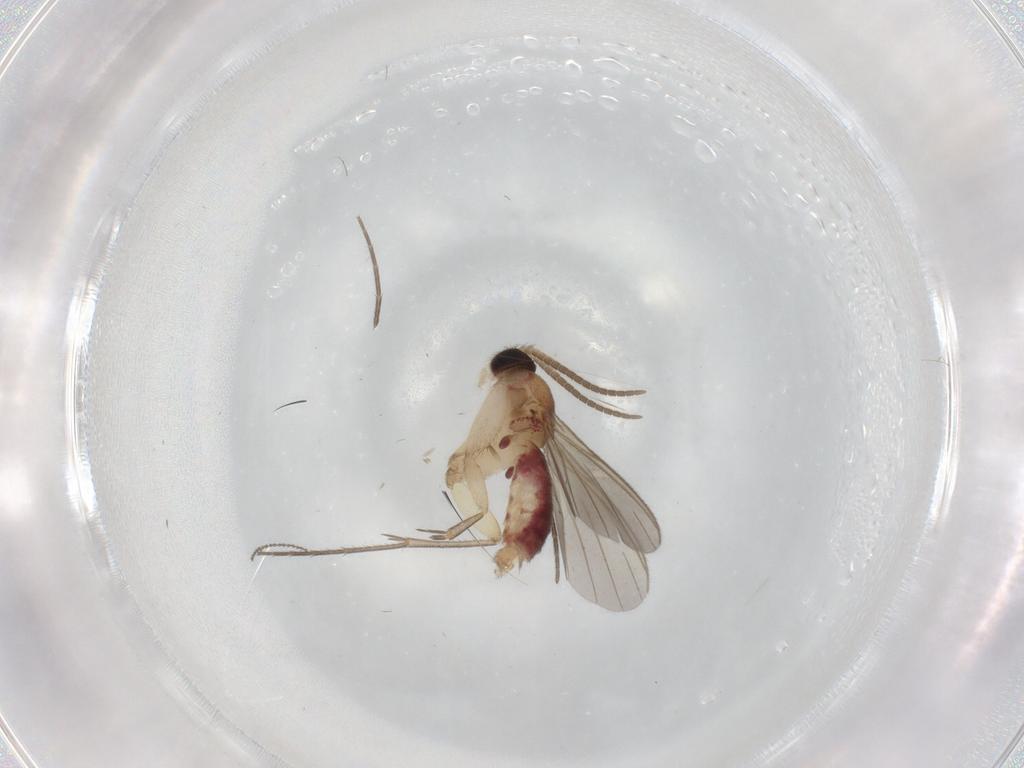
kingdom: Animalia
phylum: Arthropoda
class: Insecta
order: Diptera
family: Mycetophilidae
